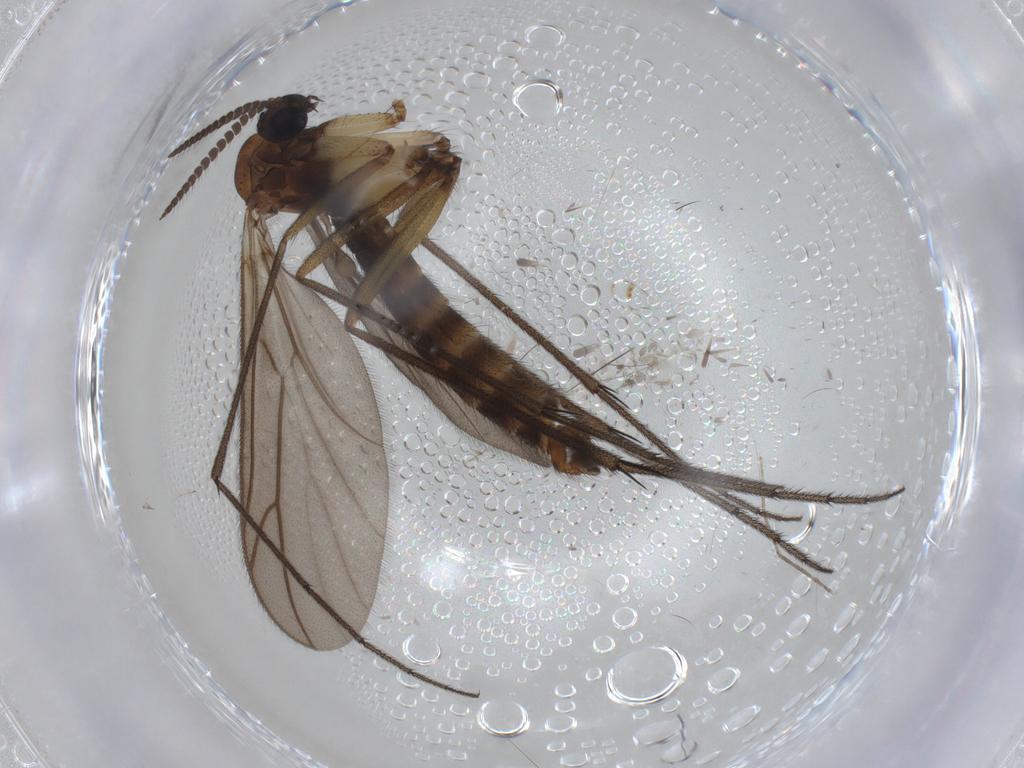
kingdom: Animalia
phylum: Arthropoda
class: Insecta
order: Diptera
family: Ditomyiidae
